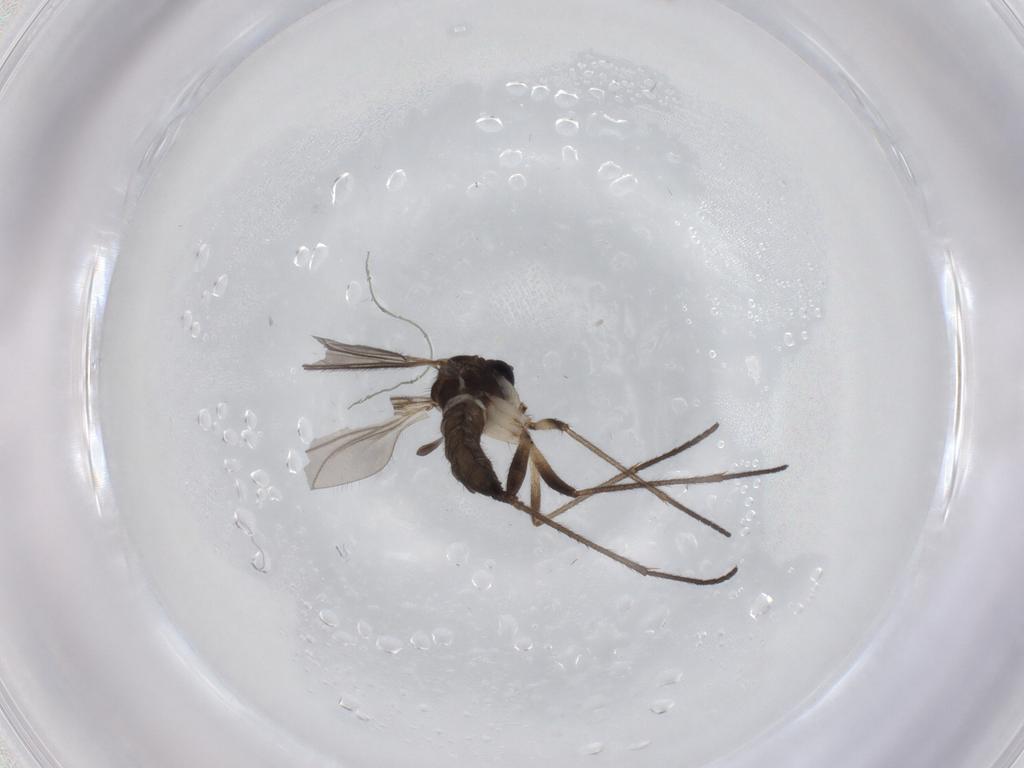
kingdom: Animalia
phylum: Arthropoda
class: Insecta
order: Diptera
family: Sciaridae
